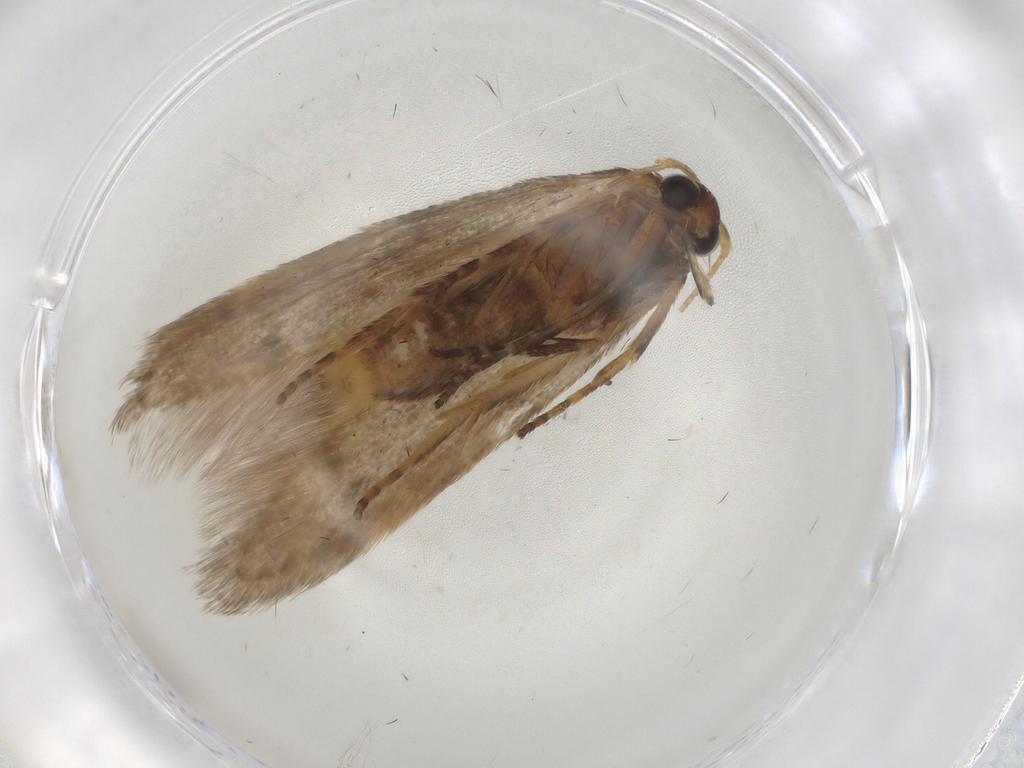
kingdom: Animalia
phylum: Arthropoda
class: Insecta
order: Lepidoptera
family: Coleophoridae
